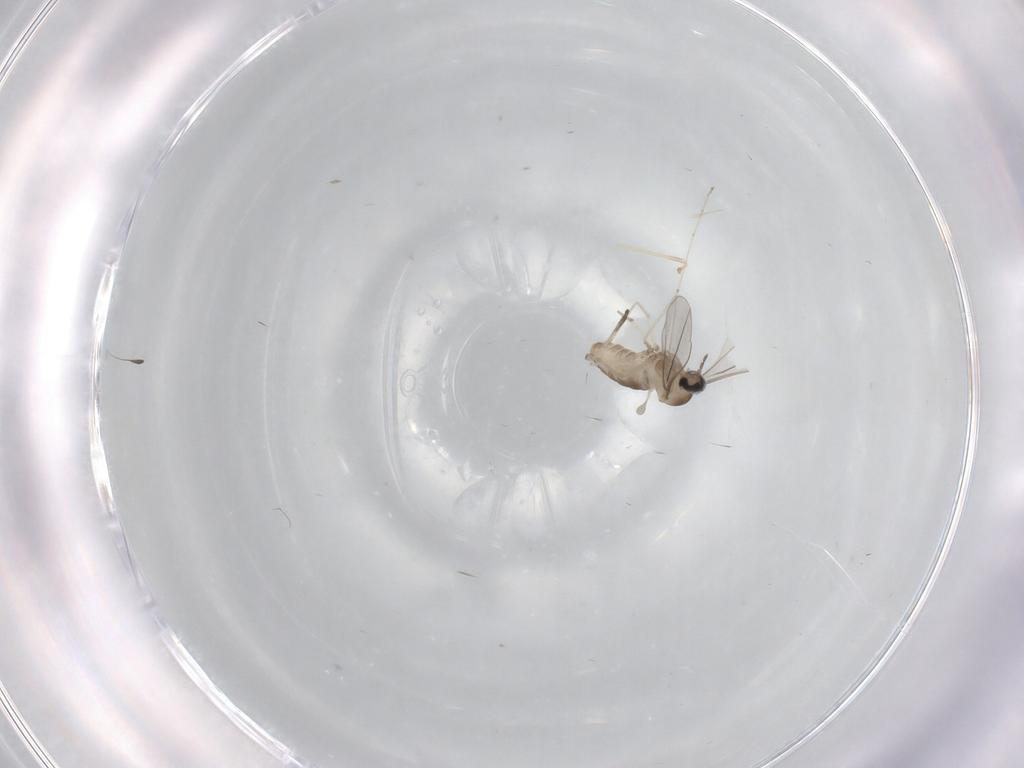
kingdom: Animalia
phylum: Arthropoda
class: Insecta
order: Diptera
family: Cecidomyiidae
